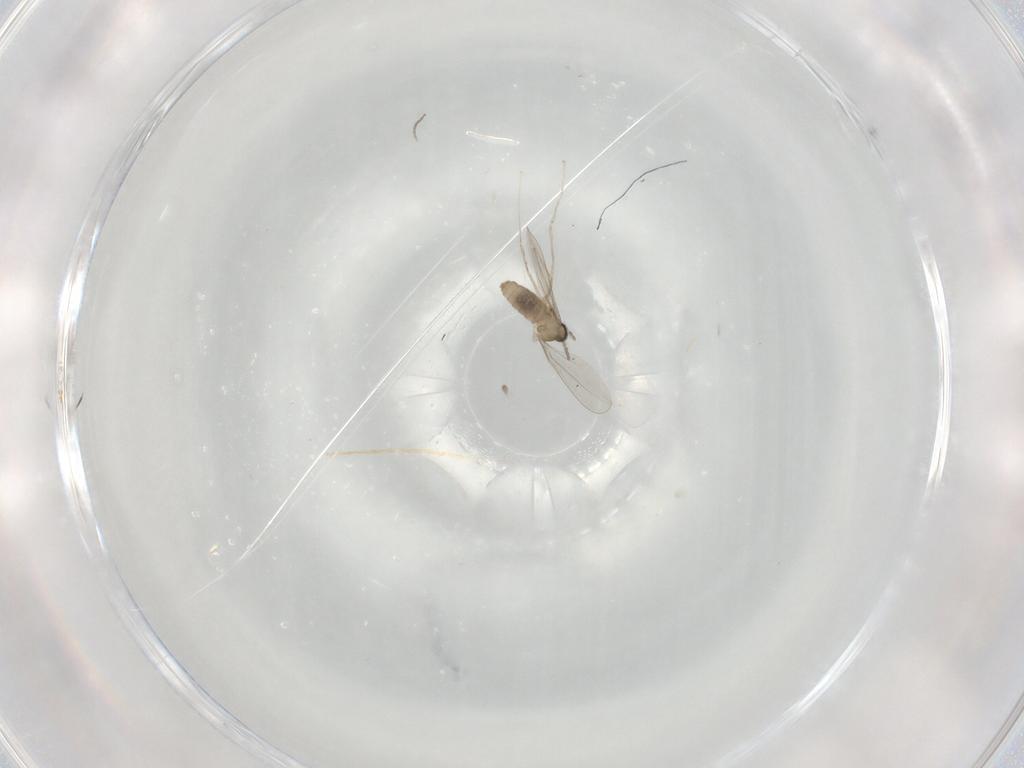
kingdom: Animalia
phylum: Arthropoda
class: Insecta
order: Diptera
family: Cecidomyiidae
